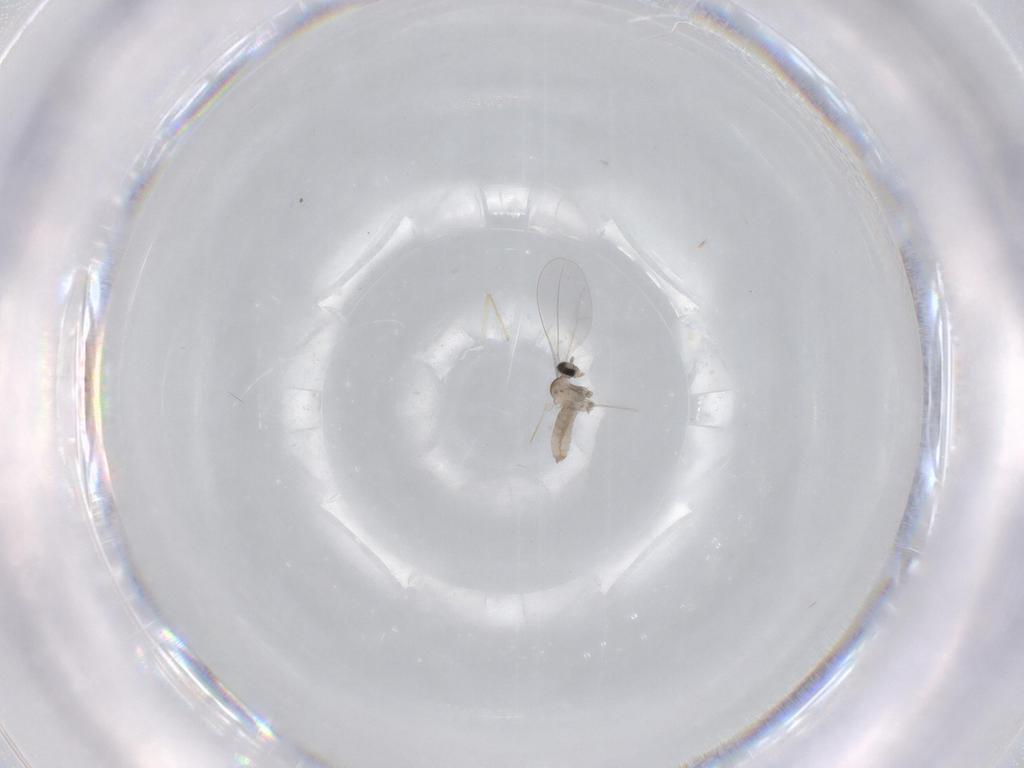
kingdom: Animalia
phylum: Arthropoda
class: Insecta
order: Diptera
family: Cecidomyiidae
